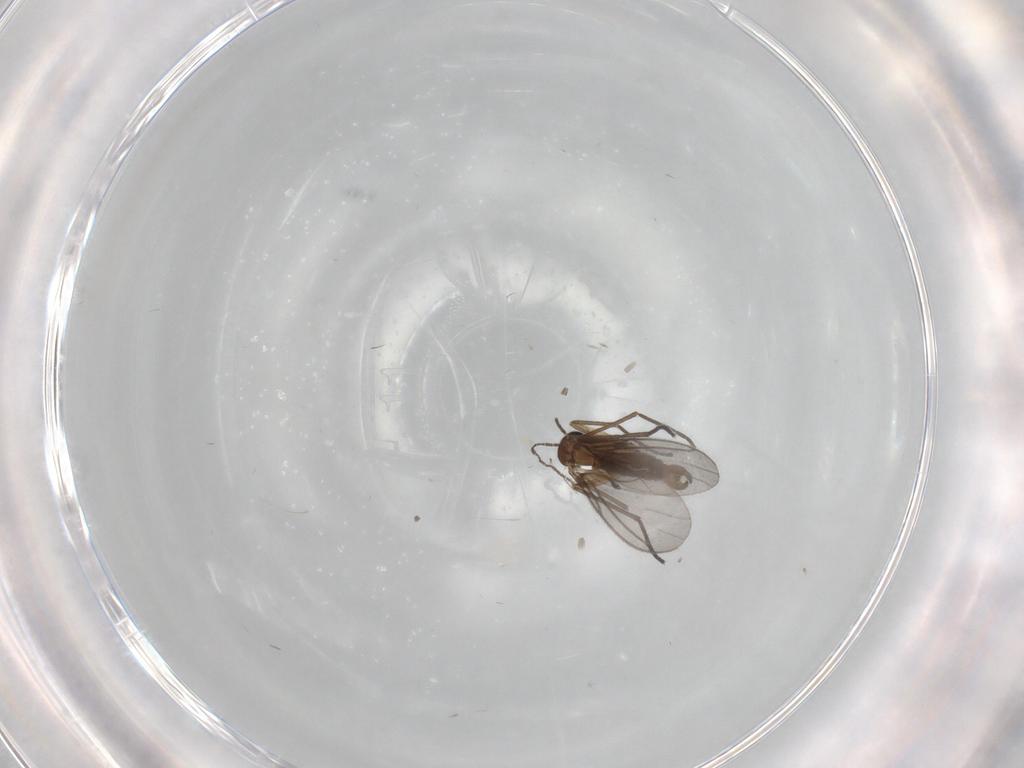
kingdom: Animalia
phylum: Arthropoda
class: Insecta
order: Diptera
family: Sciaridae
